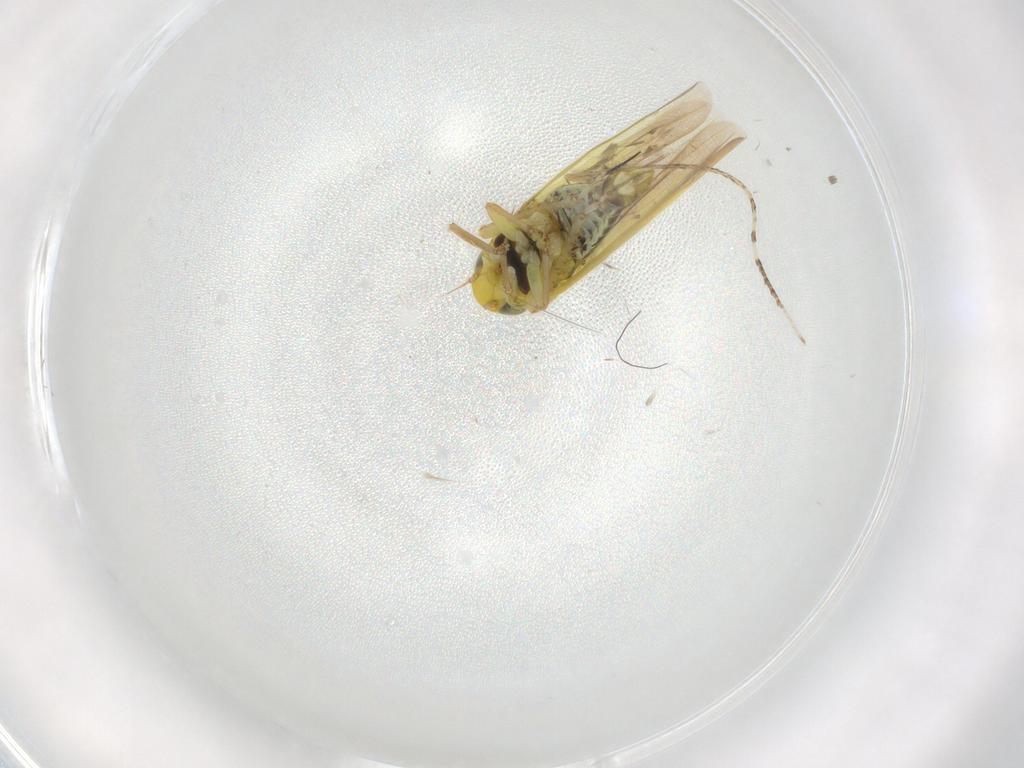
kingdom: Animalia
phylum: Arthropoda
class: Insecta
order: Hemiptera
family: Cicadellidae
